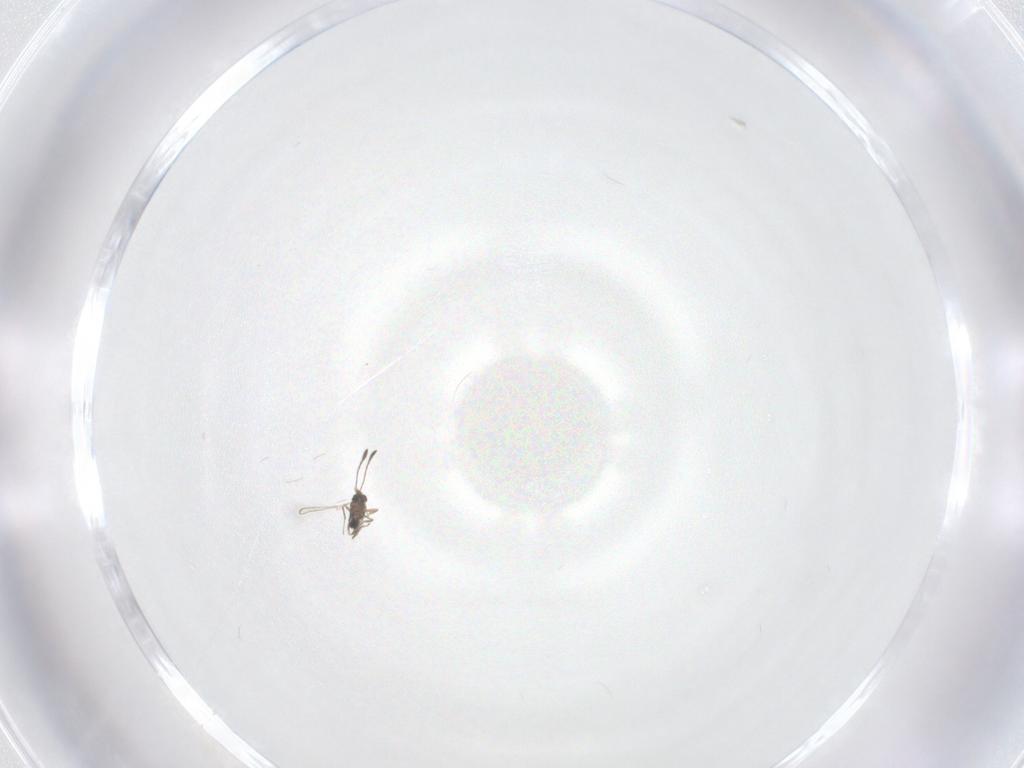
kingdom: Animalia
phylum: Arthropoda
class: Insecta
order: Hymenoptera
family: Mymaridae
